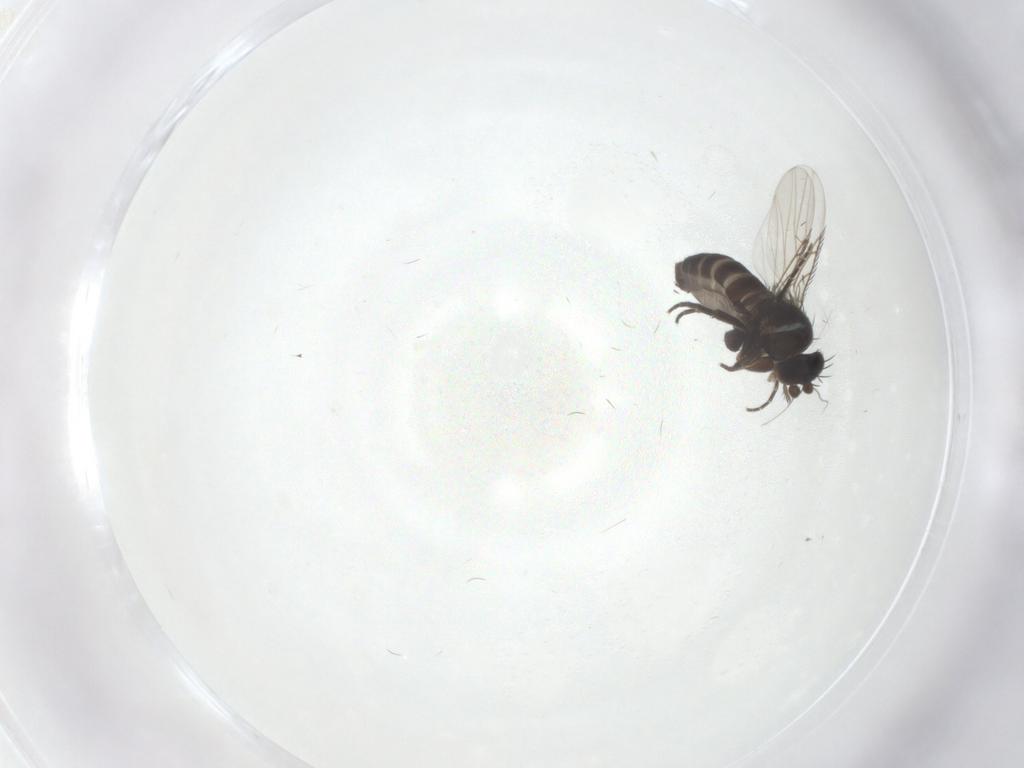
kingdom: Animalia
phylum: Arthropoda
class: Insecta
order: Diptera
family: Phoridae
